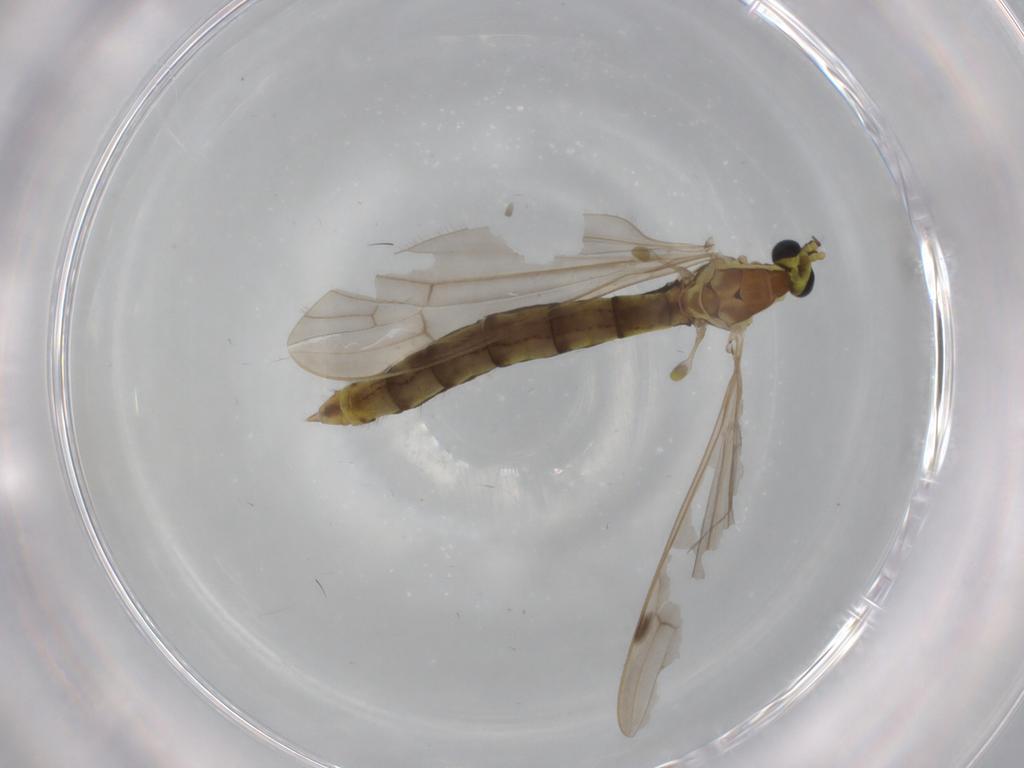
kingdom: Animalia
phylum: Arthropoda
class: Insecta
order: Diptera
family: Limoniidae
